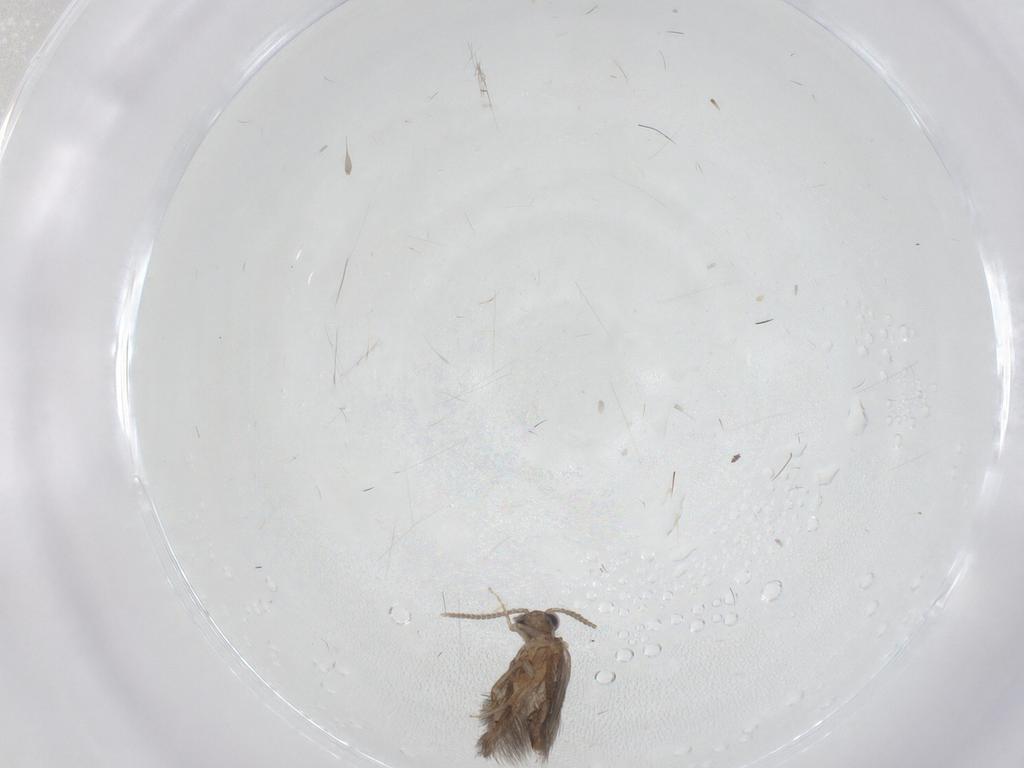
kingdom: Animalia
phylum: Arthropoda
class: Insecta
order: Trichoptera
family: Hydroptilidae
